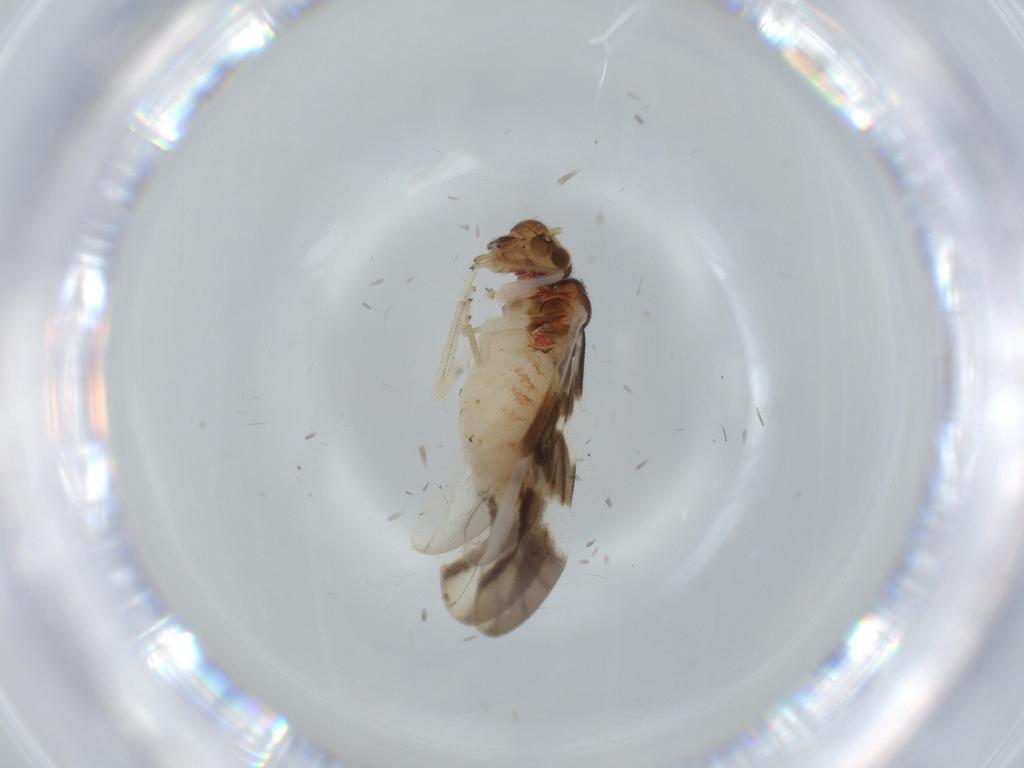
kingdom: Animalia
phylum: Arthropoda
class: Insecta
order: Psocodea
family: Caeciliusidae
